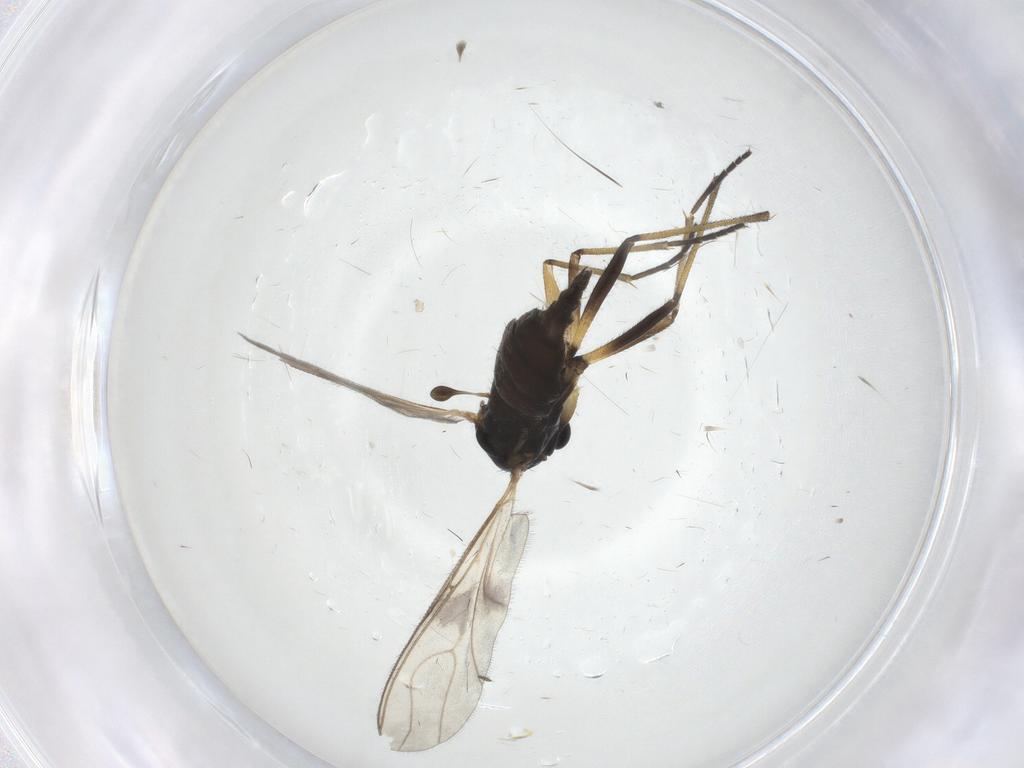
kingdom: Animalia
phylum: Arthropoda
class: Insecta
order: Diptera
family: Sciaridae
